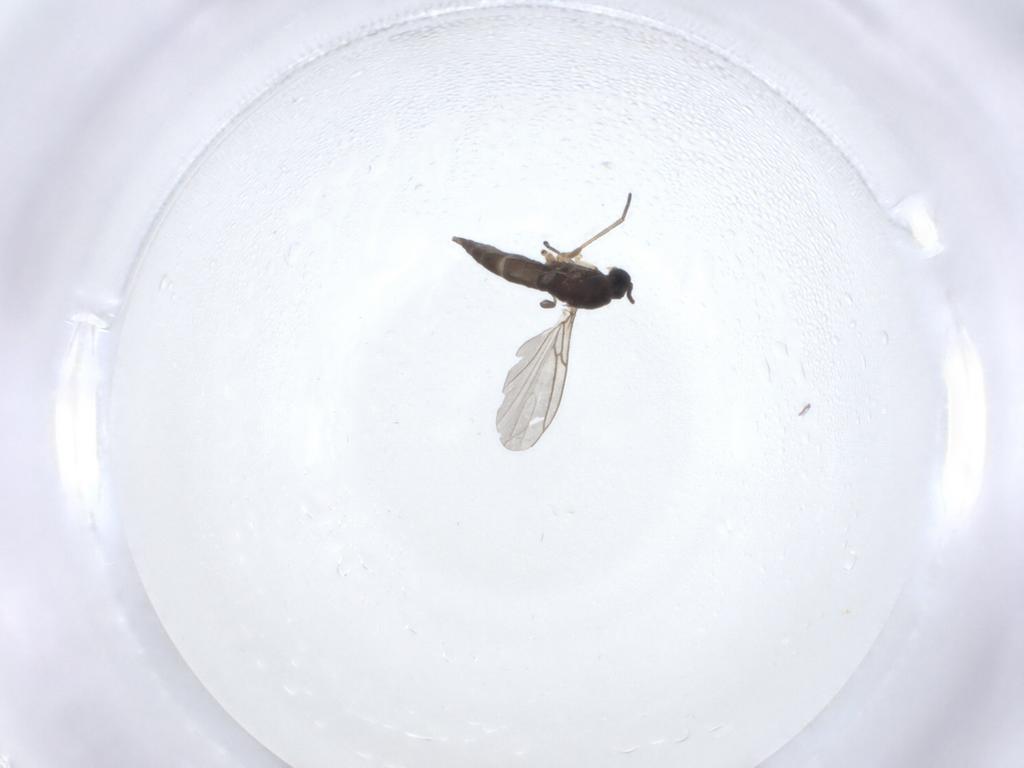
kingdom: Animalia
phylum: Arthropoda
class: Insecta
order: Diptera
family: Sciaridae
